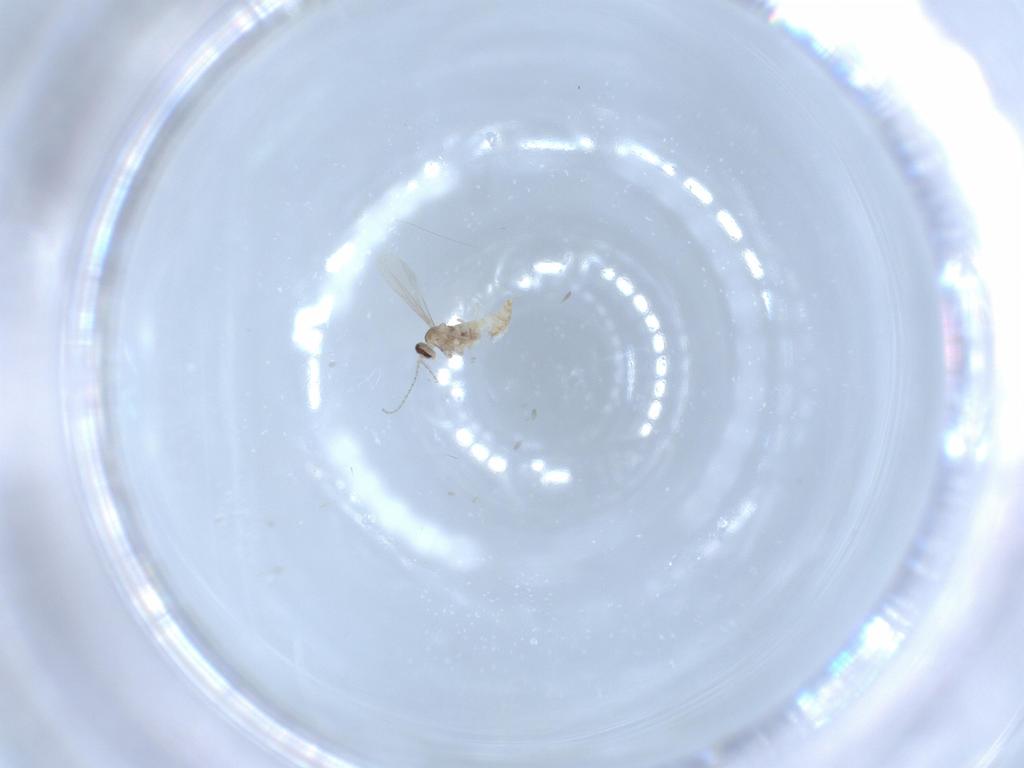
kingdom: Animalia
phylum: Arthropoda
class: Insecta
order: Diptera
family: Cecidomyiidae
